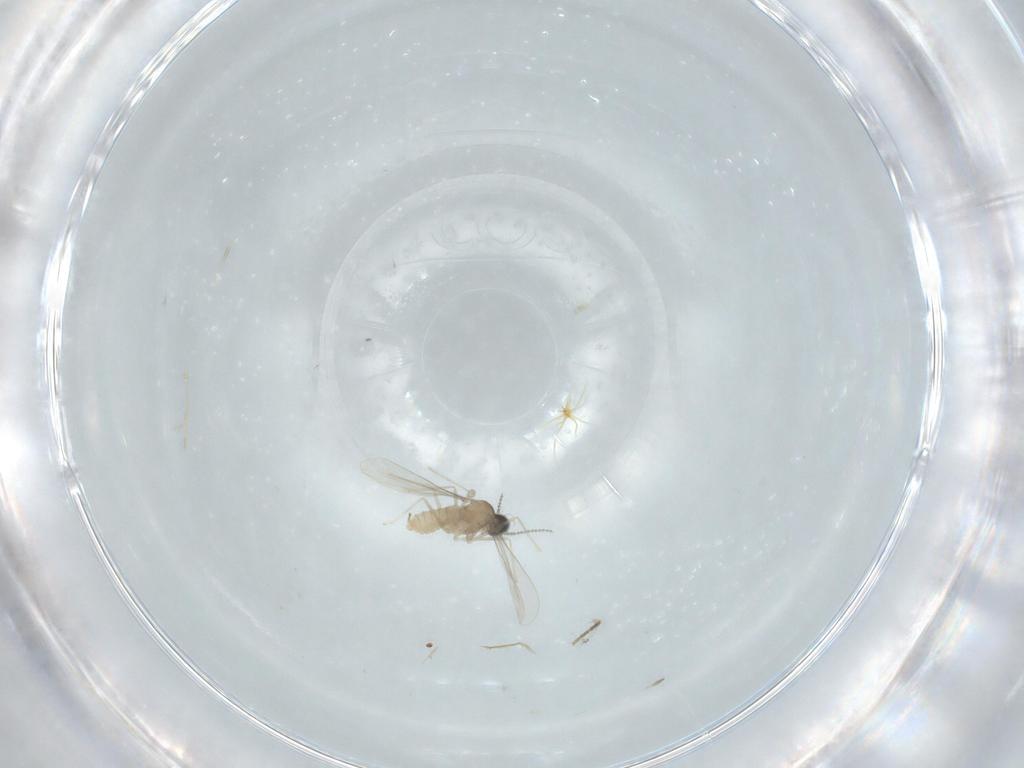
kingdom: Animalia
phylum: Arthropoda
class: Insecta
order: Diptera
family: Cecidomyiidae
